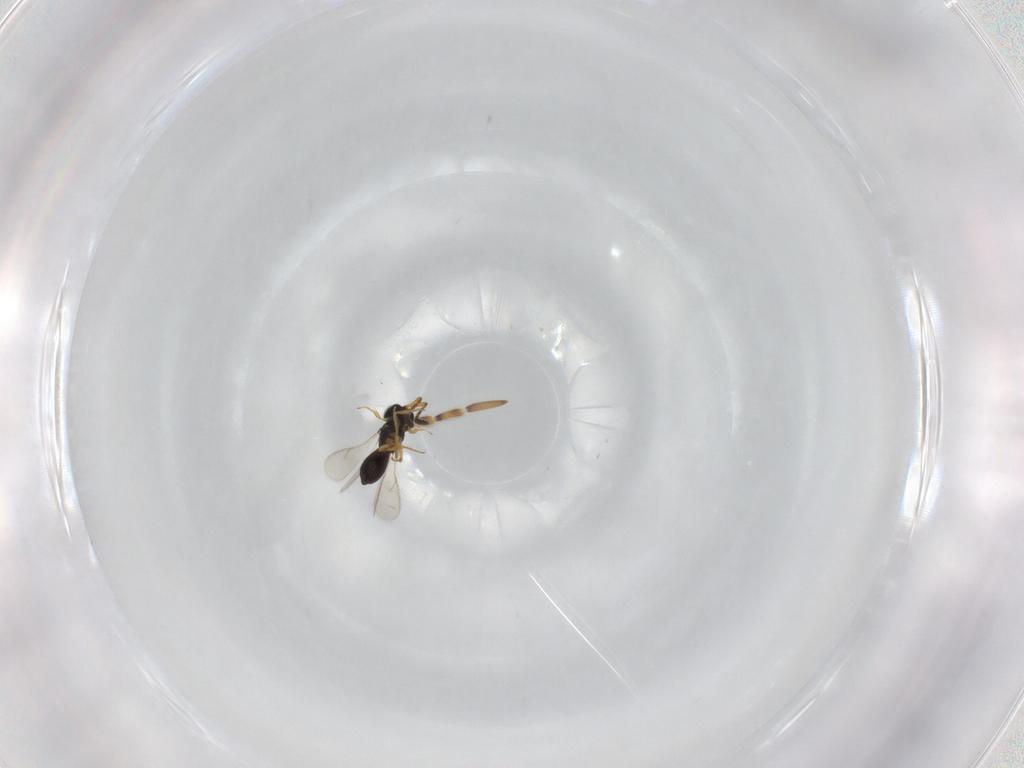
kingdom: Animalia
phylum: Arthropoda
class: Insecta
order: Hymenoptera
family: Scelionidae
